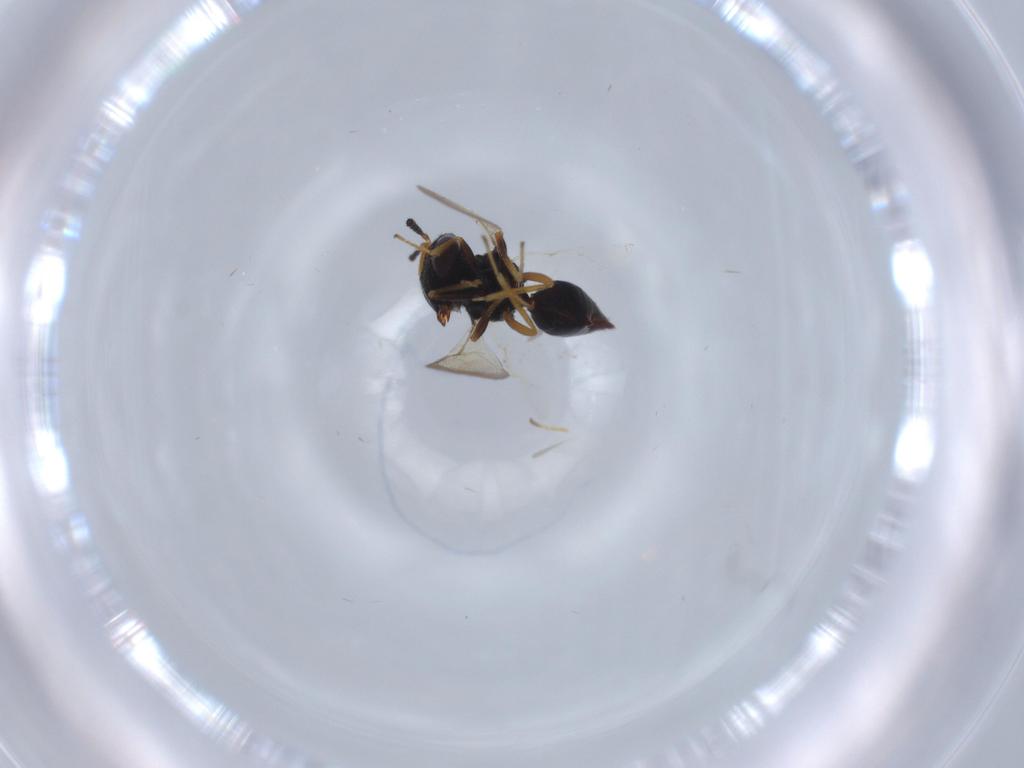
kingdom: Animalia
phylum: Arthropoda
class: Insecta
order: Hymenoptera
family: Pteromalidae
